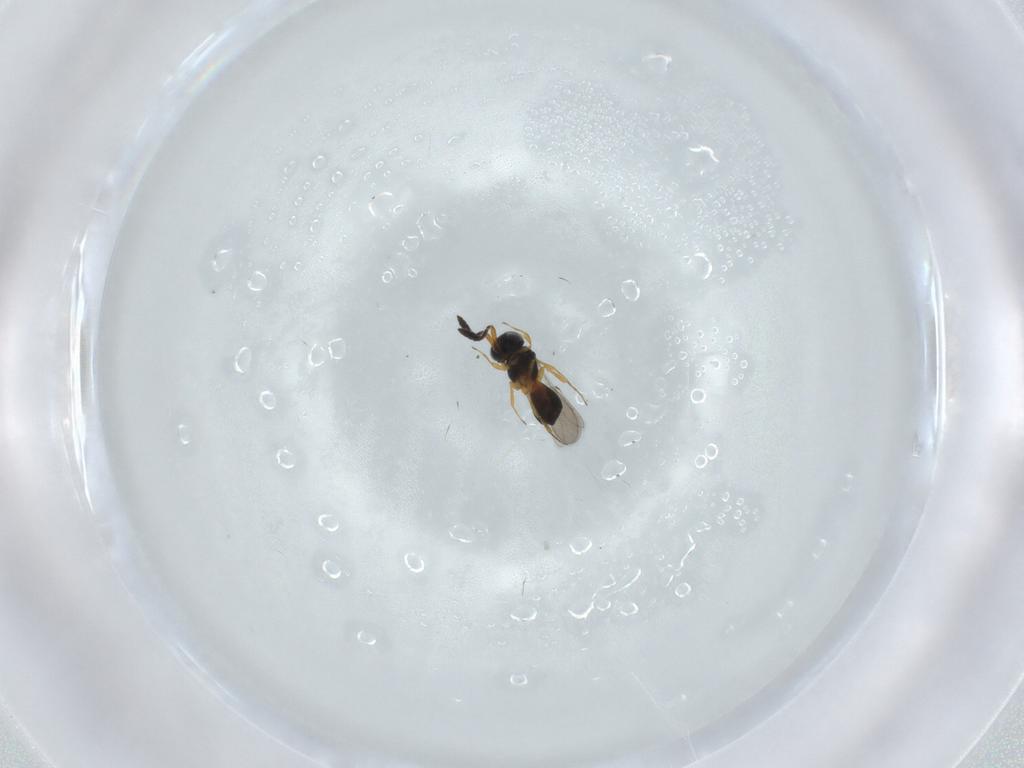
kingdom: Animalia
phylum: Arthropoda
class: Insecta
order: Hymenoptera
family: Scelionidae
